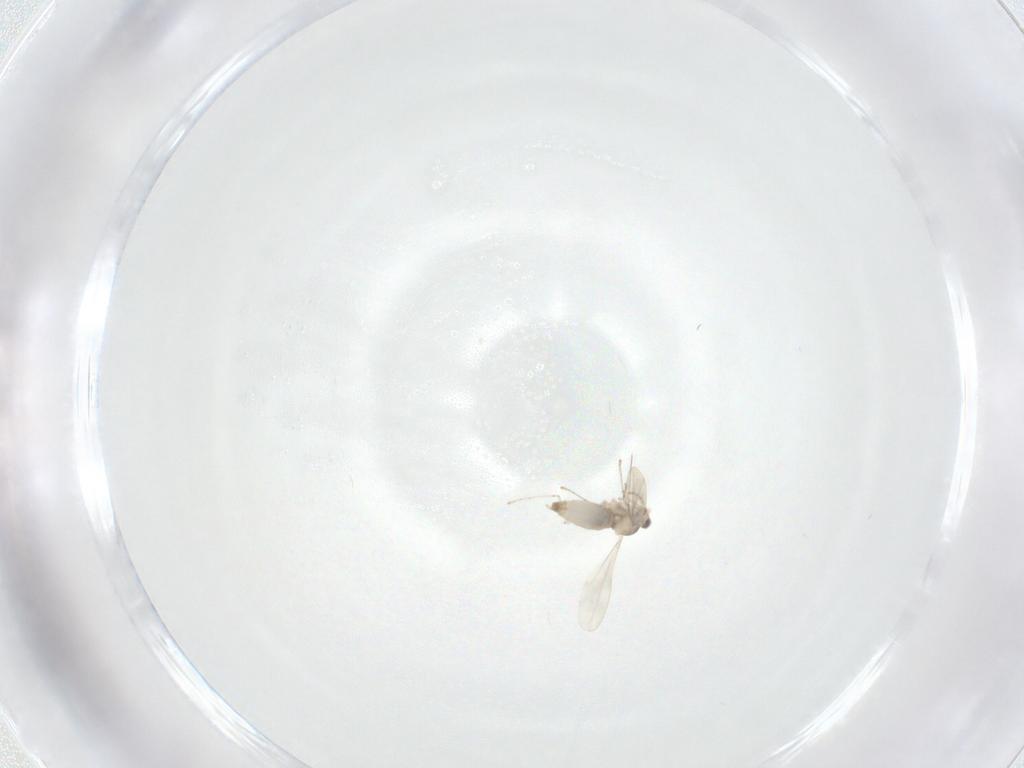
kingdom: Animalia
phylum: Arthropoda
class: Insecta
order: Diptera
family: Cecidomyiidae
